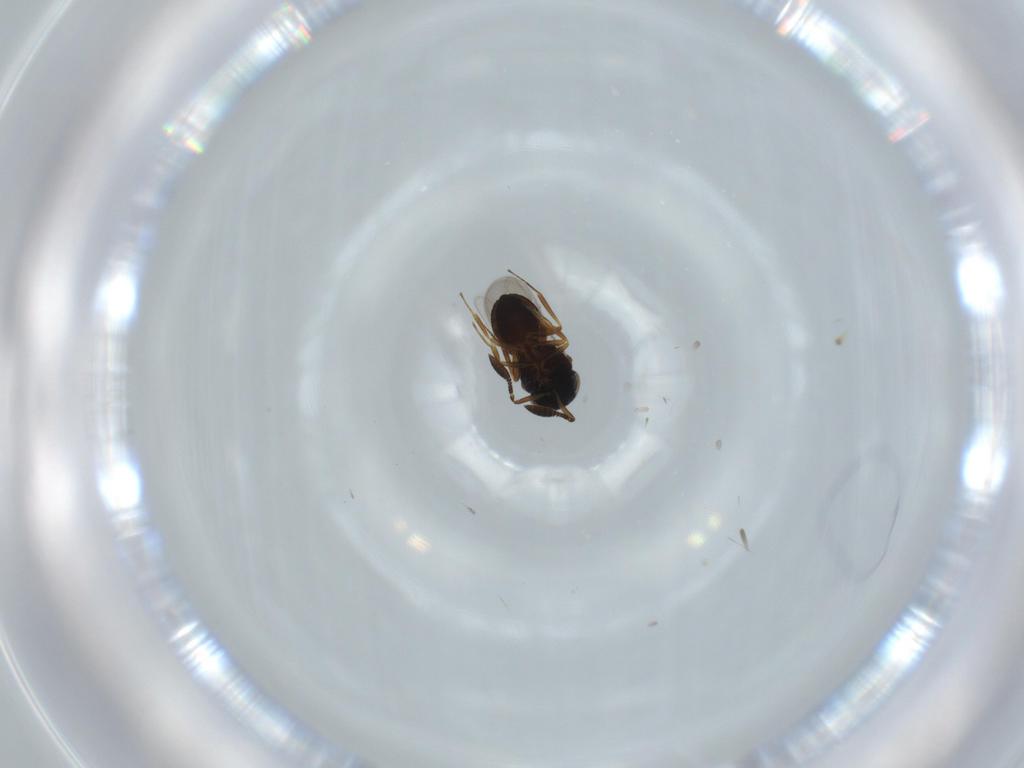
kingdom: Animalia
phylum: Arthropoda
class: Insecta
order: Hymenoptera
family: Scelionidae
